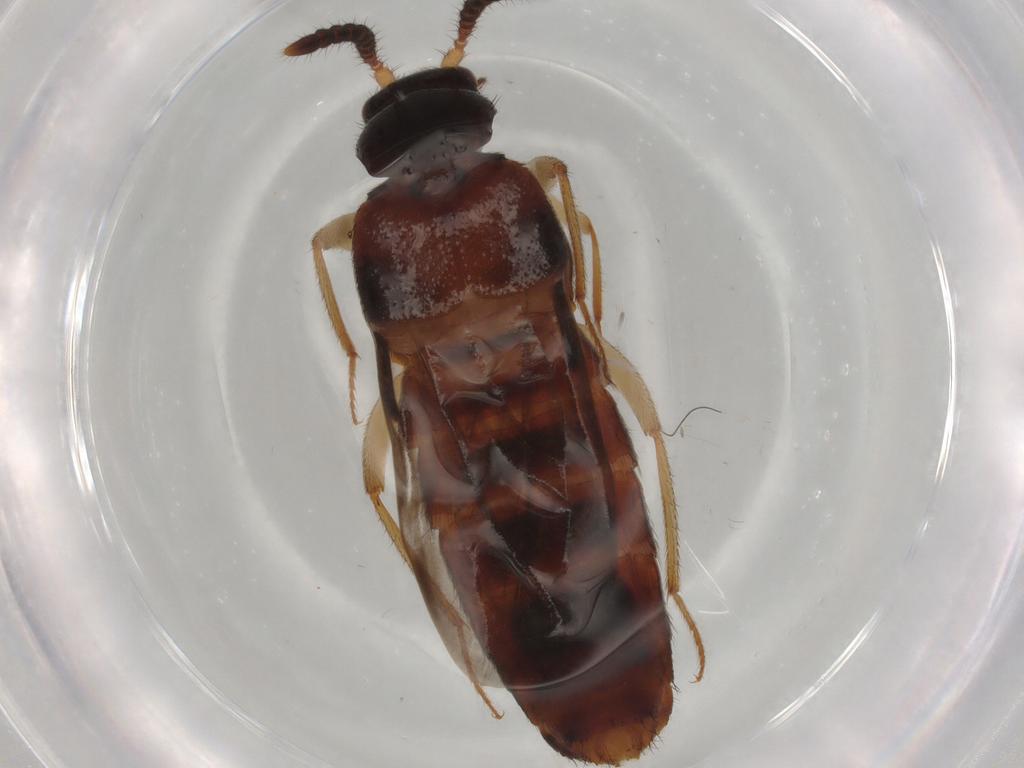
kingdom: Animalia
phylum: Arthropoda
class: Insecta
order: Coleoptera
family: Staphylinidae
